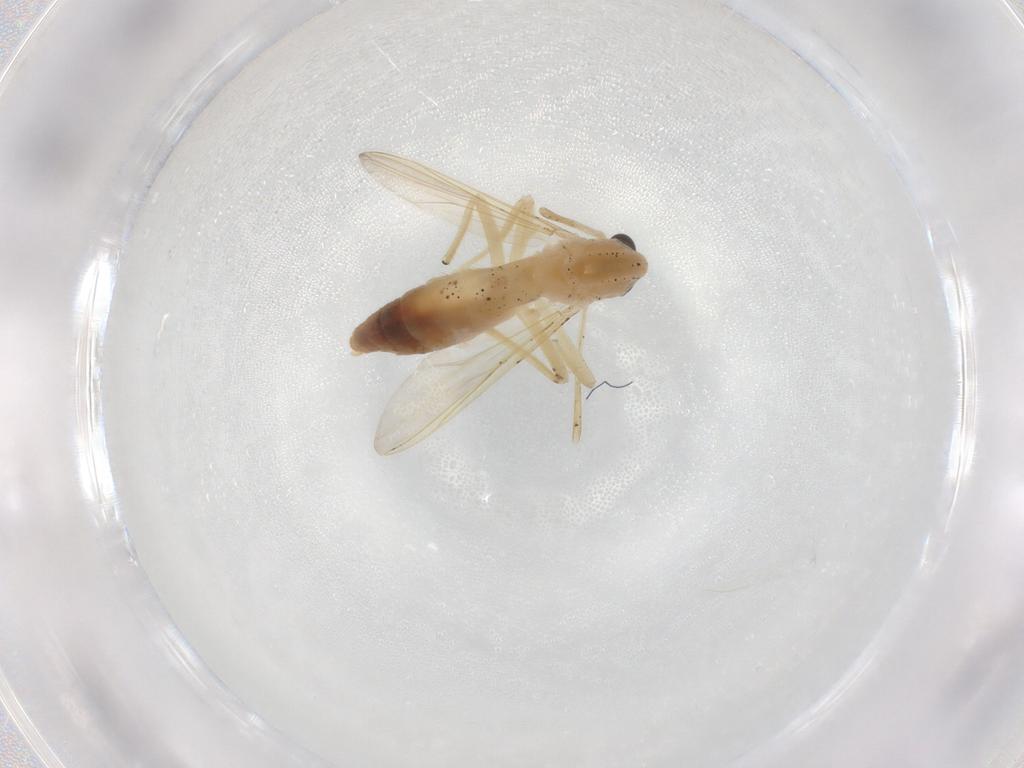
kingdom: Animalia
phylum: Arthropoda
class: Insecta
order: Diptera
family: Chironomidae
